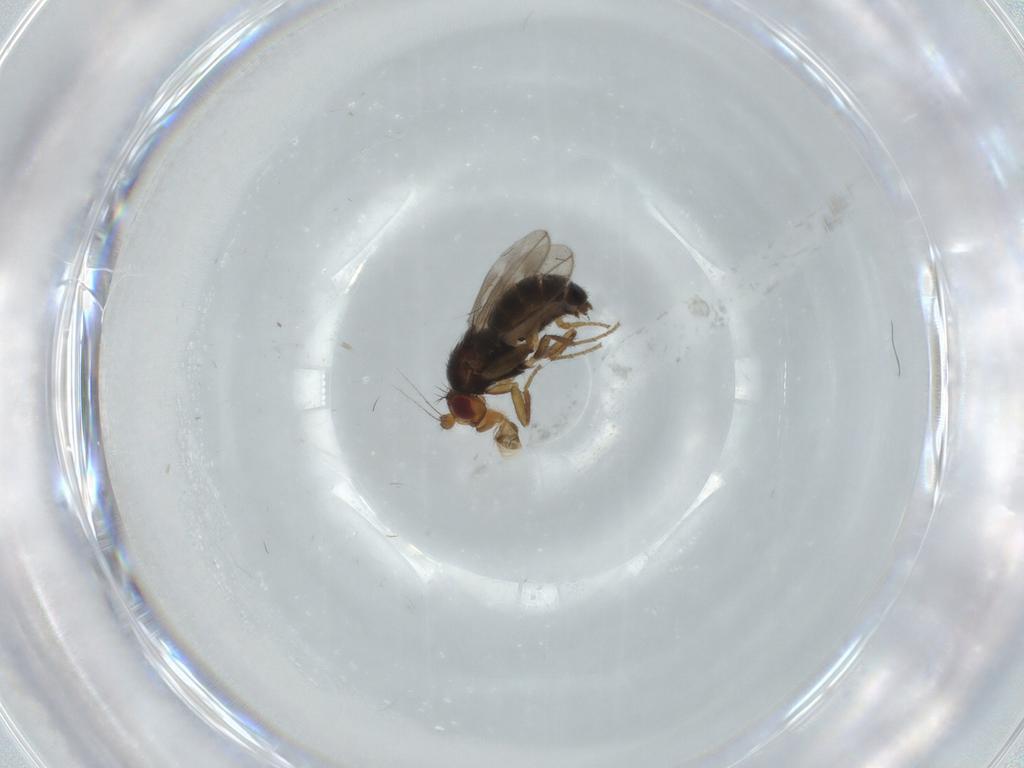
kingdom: Animalia
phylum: Arthropoda
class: Insecta
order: Diptera
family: Sphaeroceridae
